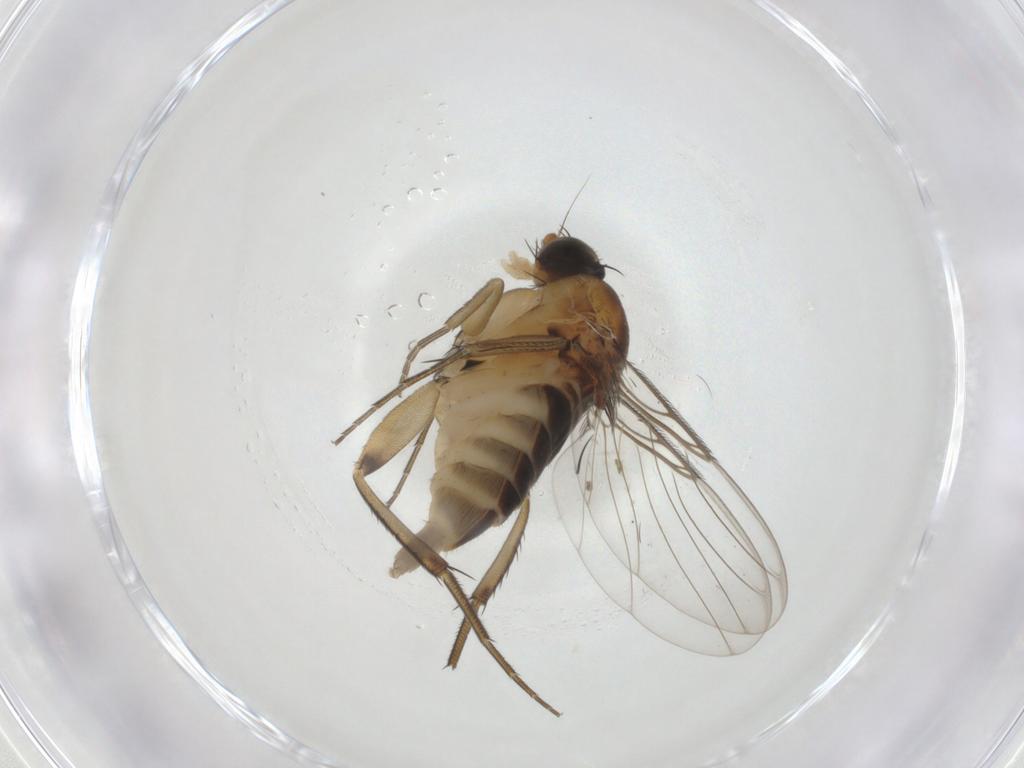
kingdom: Animalia
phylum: Arthropoda
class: Insecta
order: Diptera
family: Phoridae
